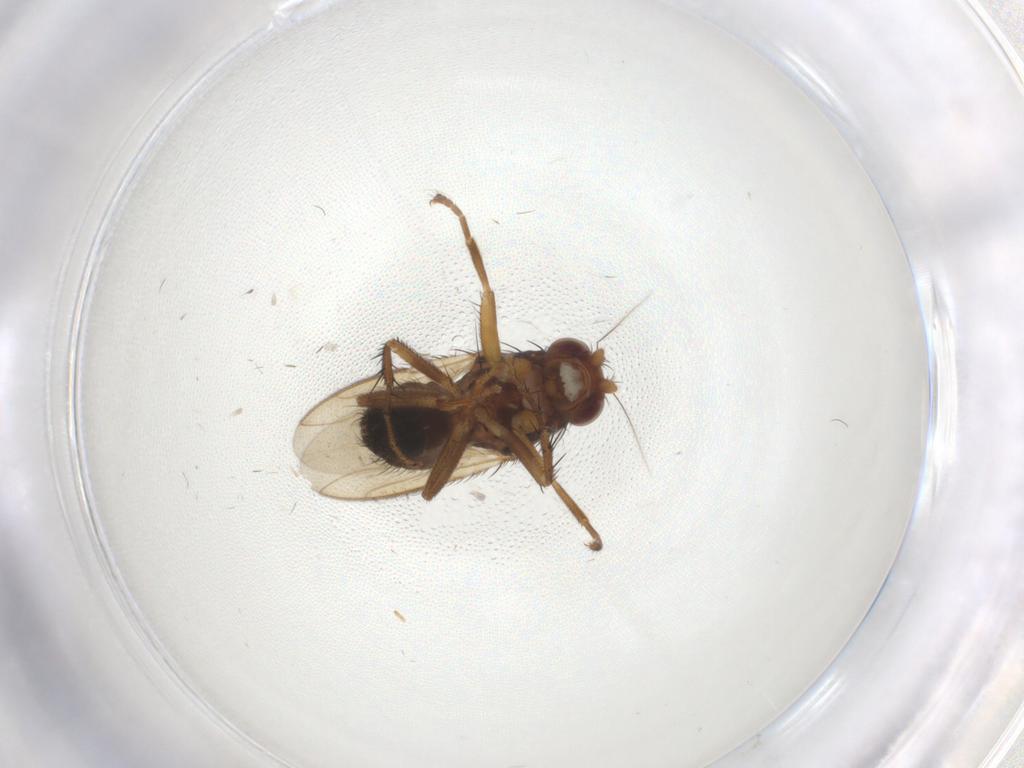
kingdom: Animalia
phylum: Arthropoda
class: Insecta
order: Diptera
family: Sphaeroceridae
